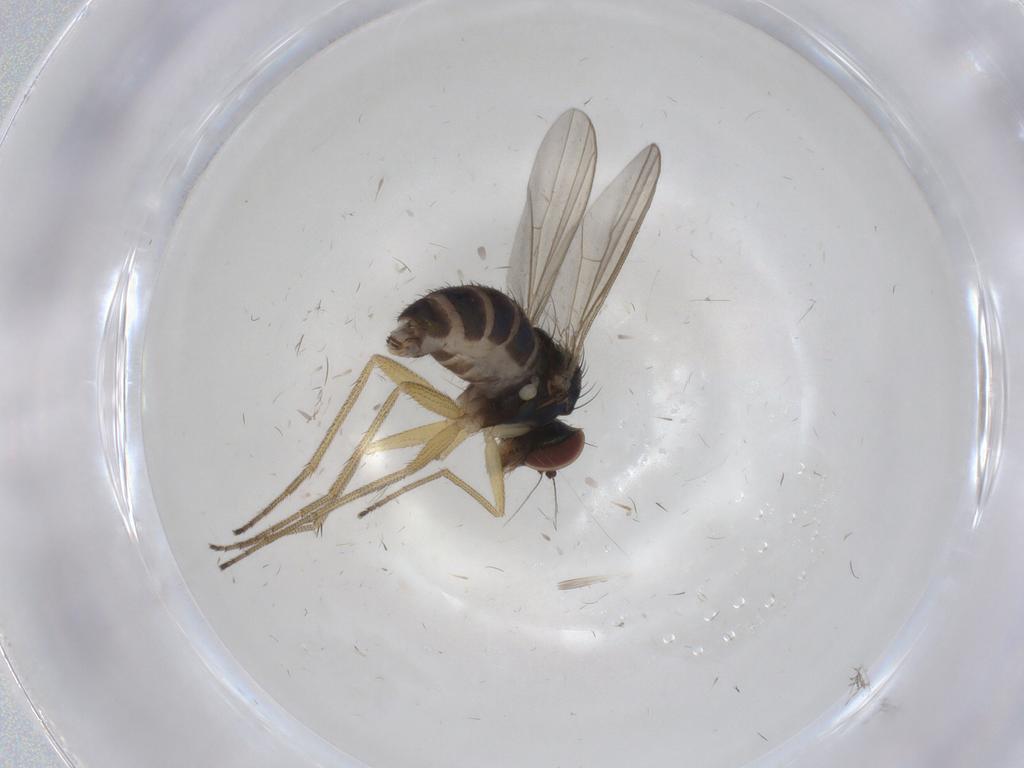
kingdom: Animalia
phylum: Arthropoda
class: Insecta
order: Diptera
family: Dolichopodidae
